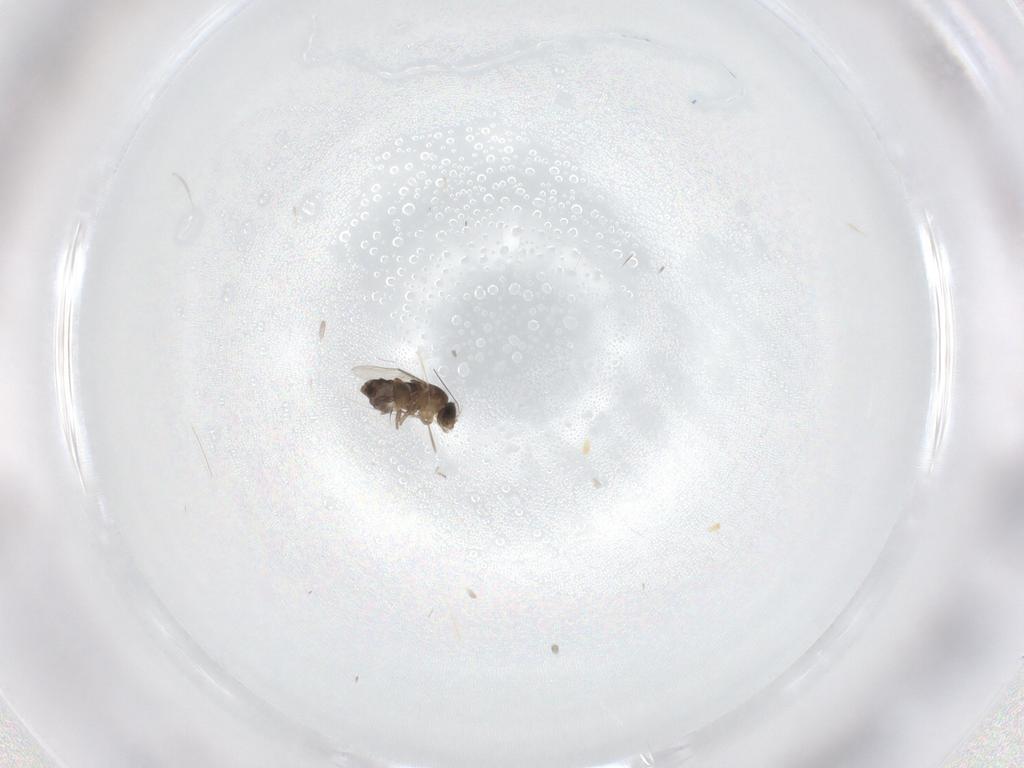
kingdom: Animalia
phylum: Arthropoda
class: Insecta
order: Diptera
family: Phoridae
